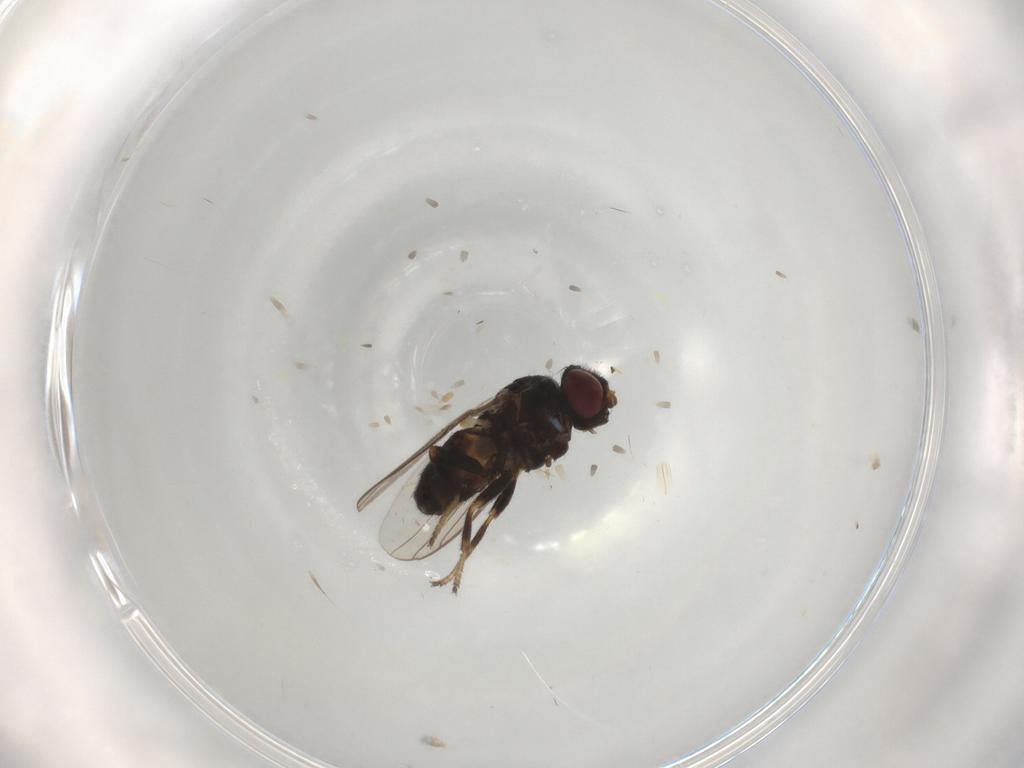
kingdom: Animalia
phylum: Arthropoda
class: Insecta
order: Diptera
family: Chloropidae
